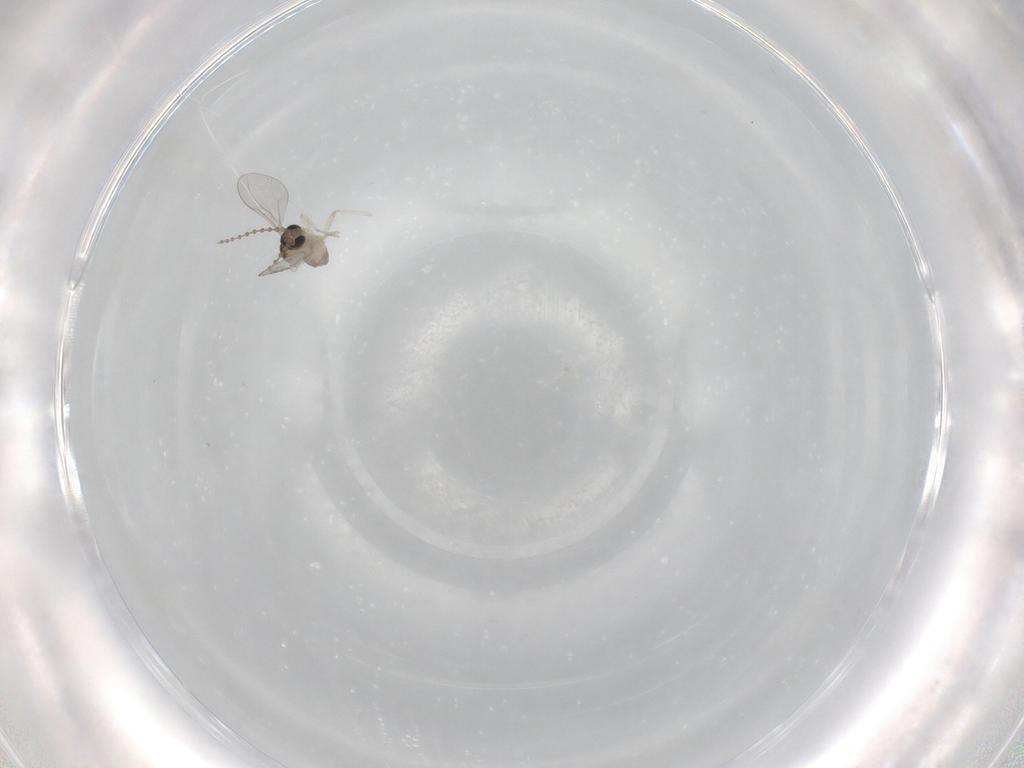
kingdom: Animalia
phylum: Arthropoda
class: Insecta
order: Diptera
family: Cecidomyiidae
